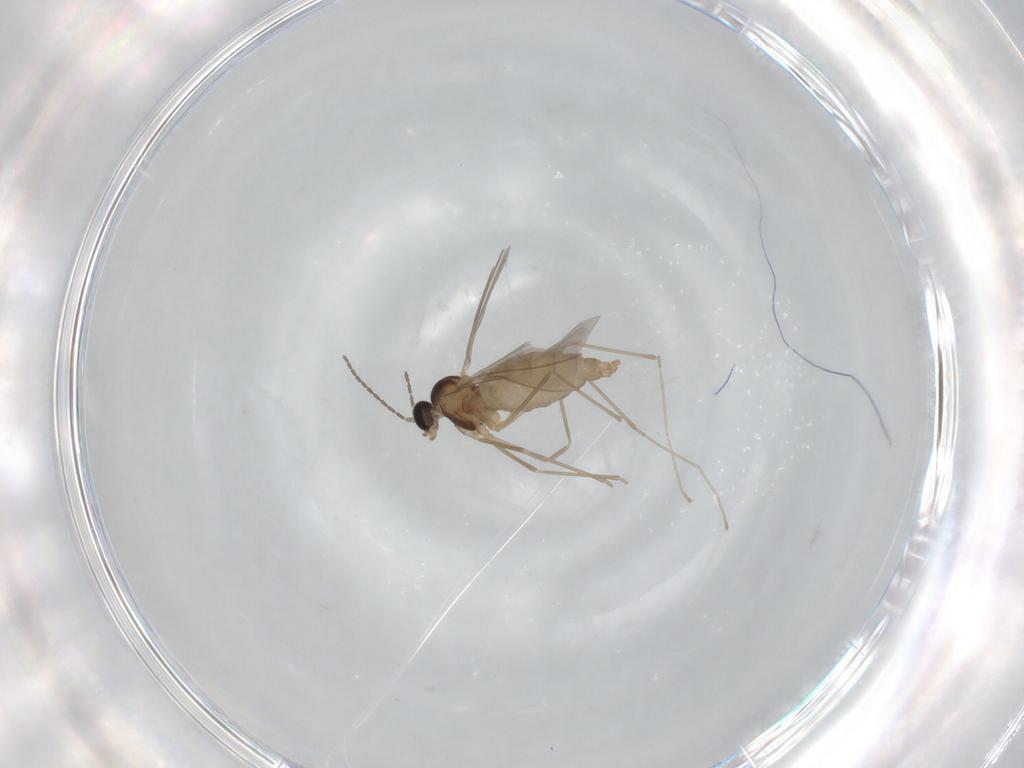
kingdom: Animalia
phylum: Arthropoda
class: Insecta
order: Diptera
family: Cecidomyiidae
